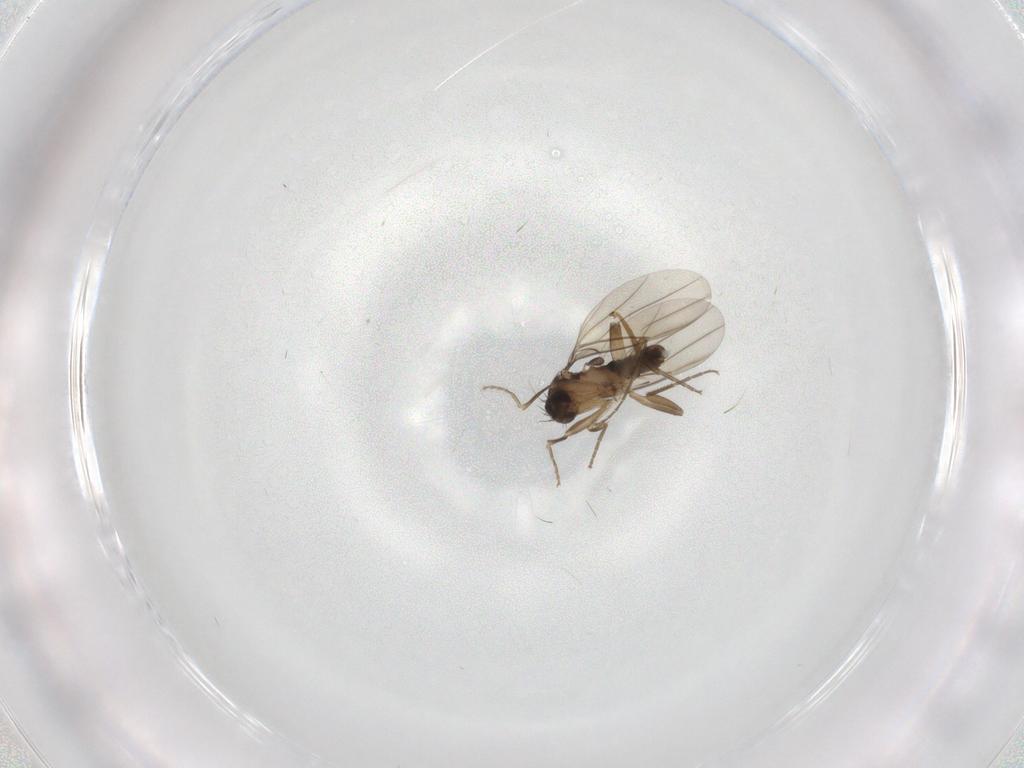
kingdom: Animalia
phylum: Arthropoda
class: Insecta
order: Diptera
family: Phoridae
